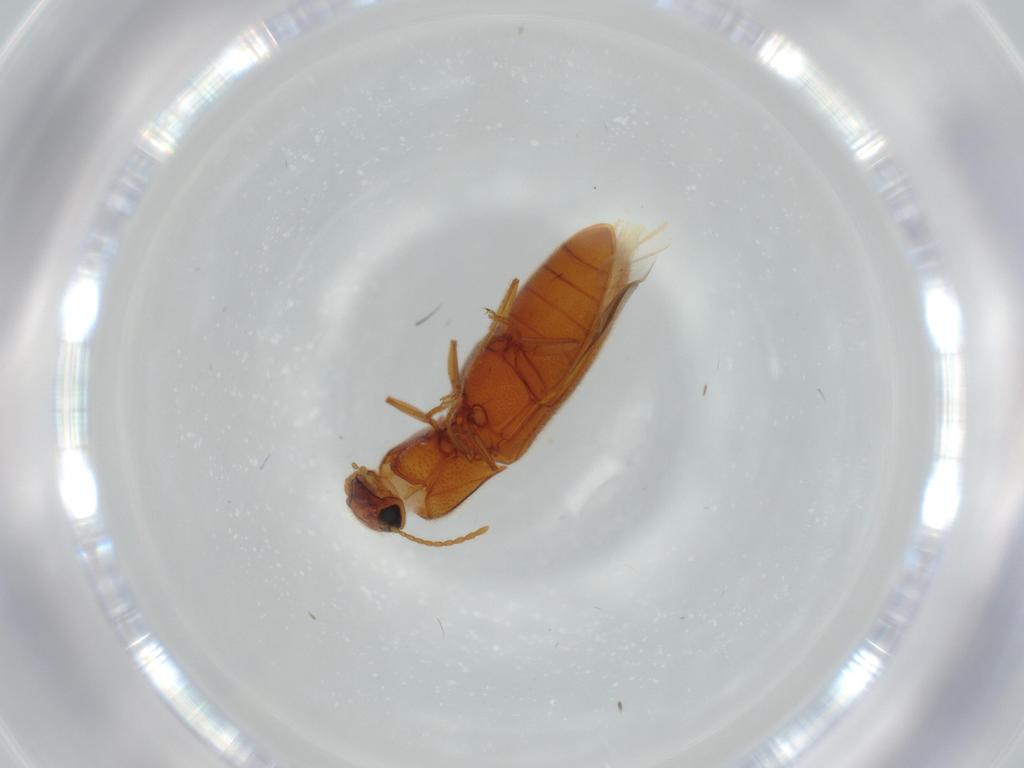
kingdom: Animalia
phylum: Arthropoda
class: Insecta
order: Coleoptera
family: Elateridae
